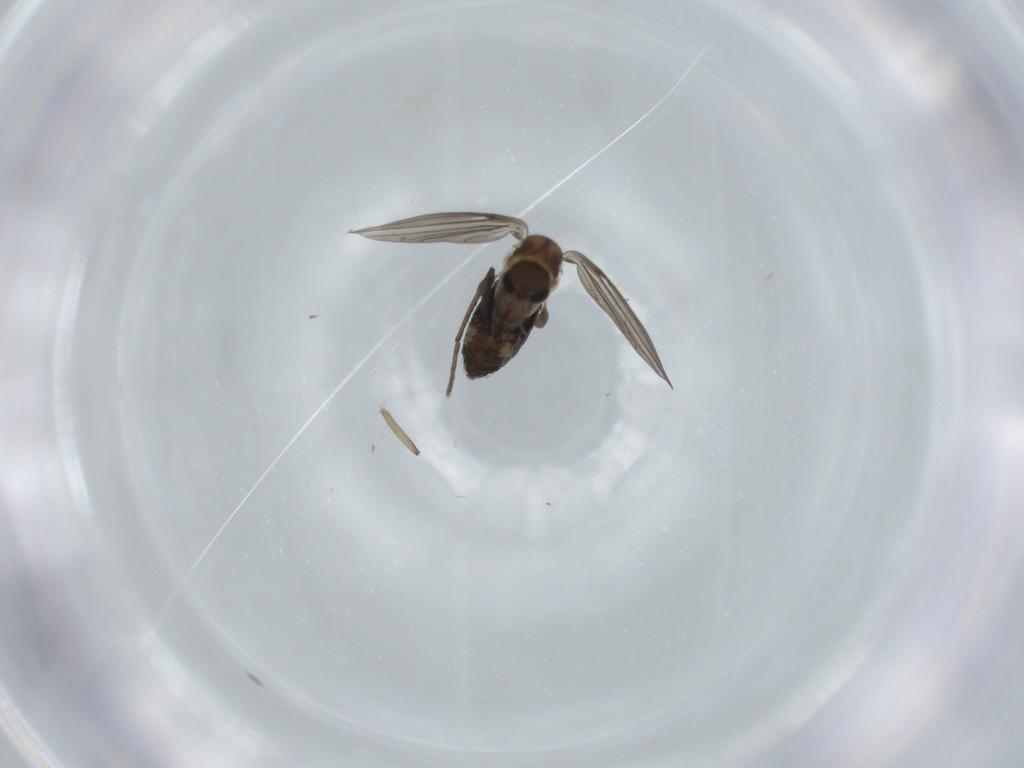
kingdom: Animalia
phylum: Arthropoda
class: Insecta
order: Diptera
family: Psychodidae
